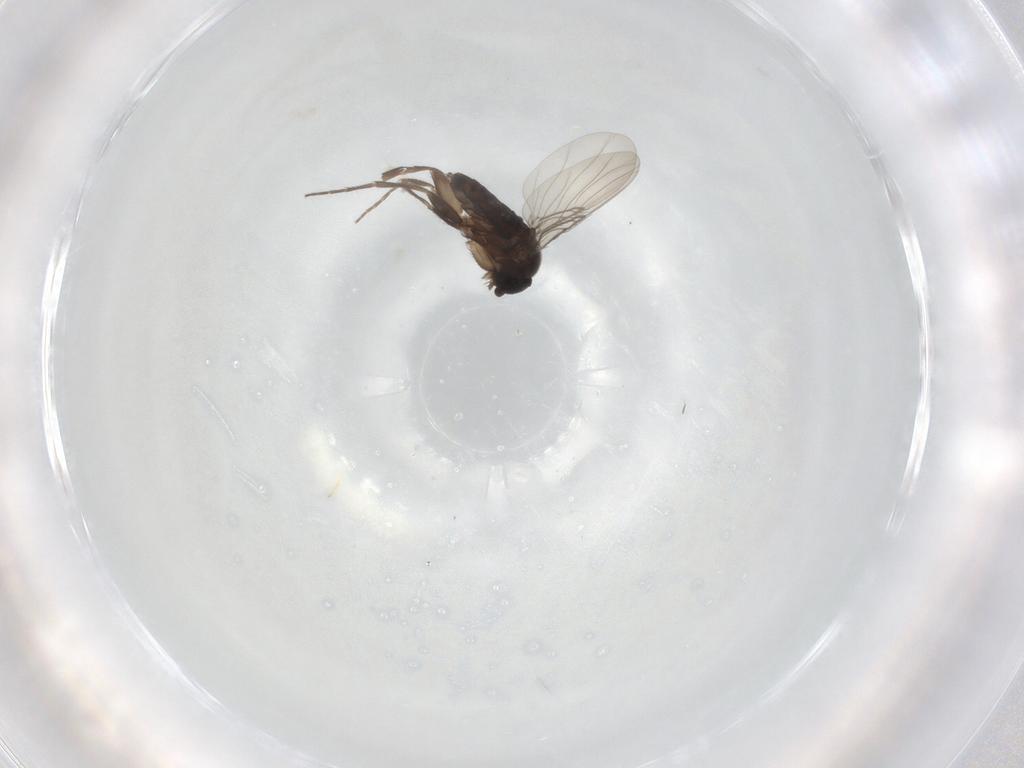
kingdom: Animalia
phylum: Arthropoda
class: Insecta
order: Diptera
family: Phoridae
